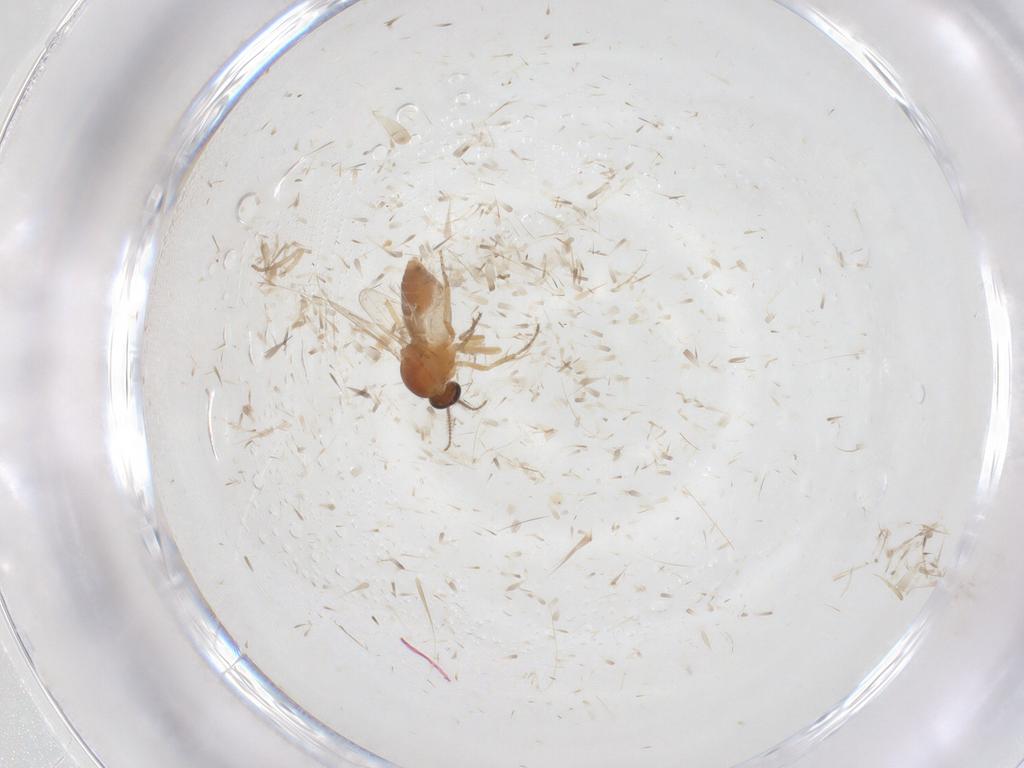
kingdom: Animalia
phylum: Arthropoda
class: Insecta
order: Diptera
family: Ceratopogonidae
